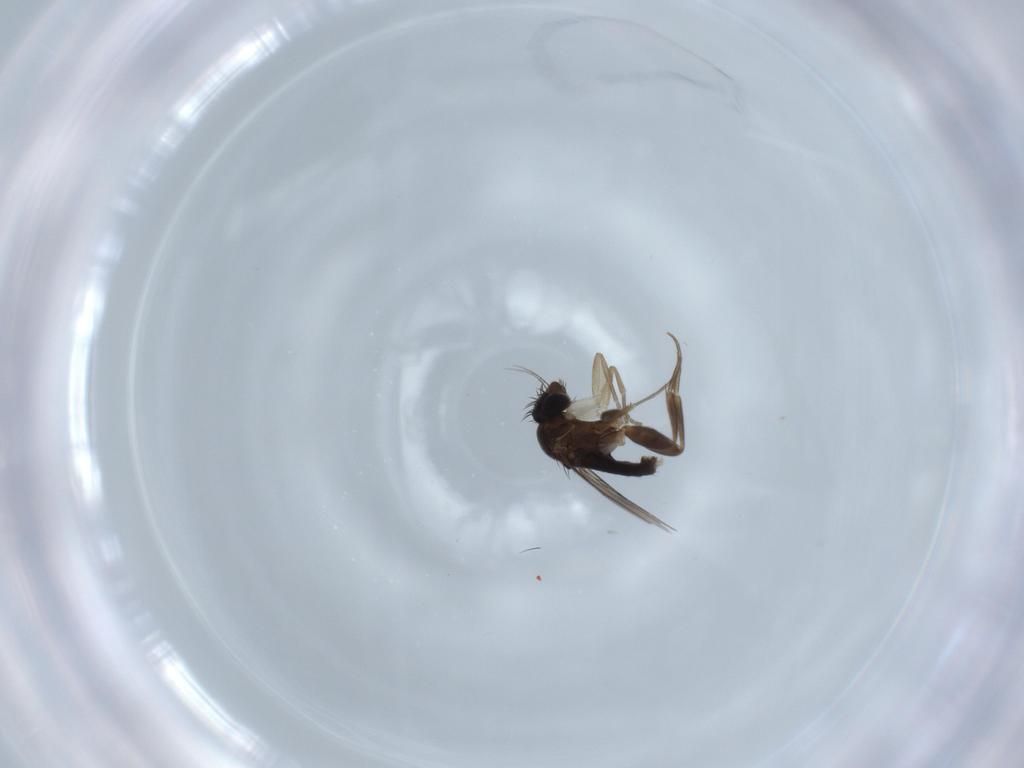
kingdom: Animalia
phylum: Arthropoda
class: Insecta
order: Diptera
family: Phoridae
